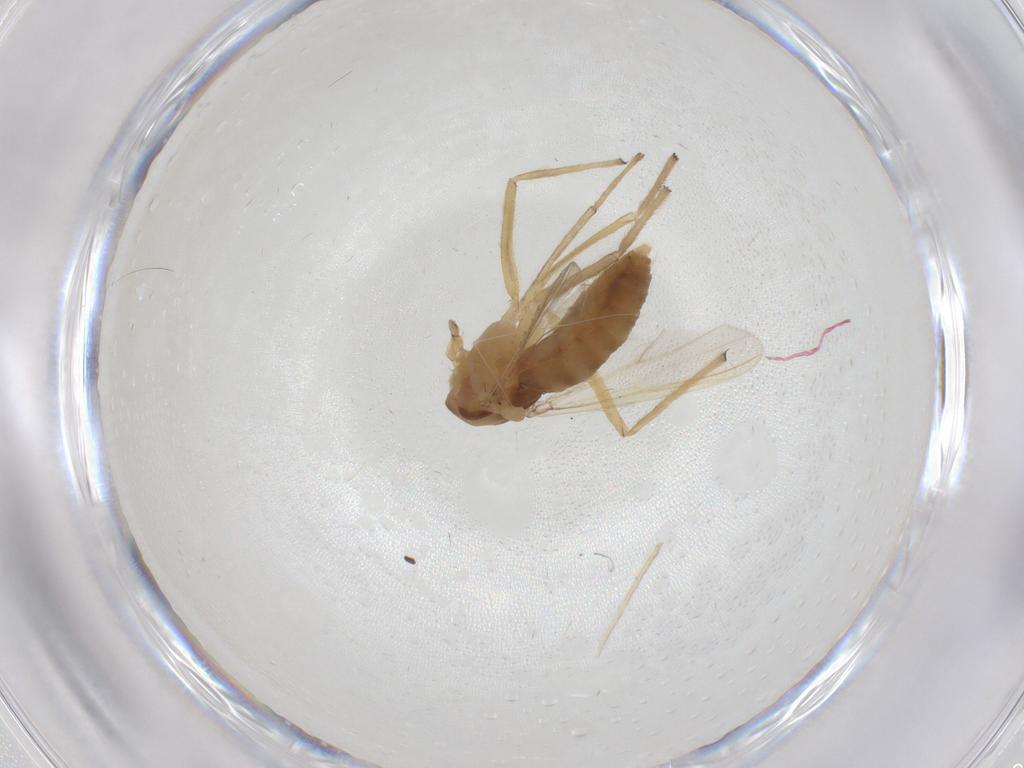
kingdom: Animalia
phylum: Arthropoda
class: Insecta
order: Diptera
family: Chironomidae
